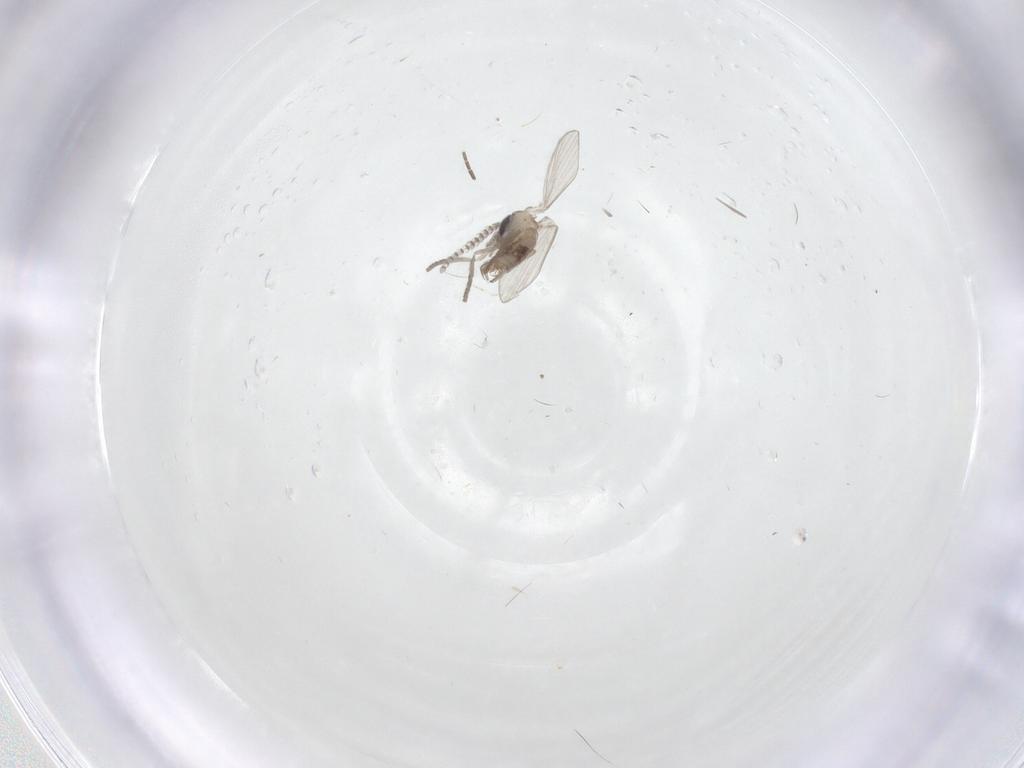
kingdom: Animalia
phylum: Arthropoda
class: Insecta
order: Diptera
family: Psychodidae
